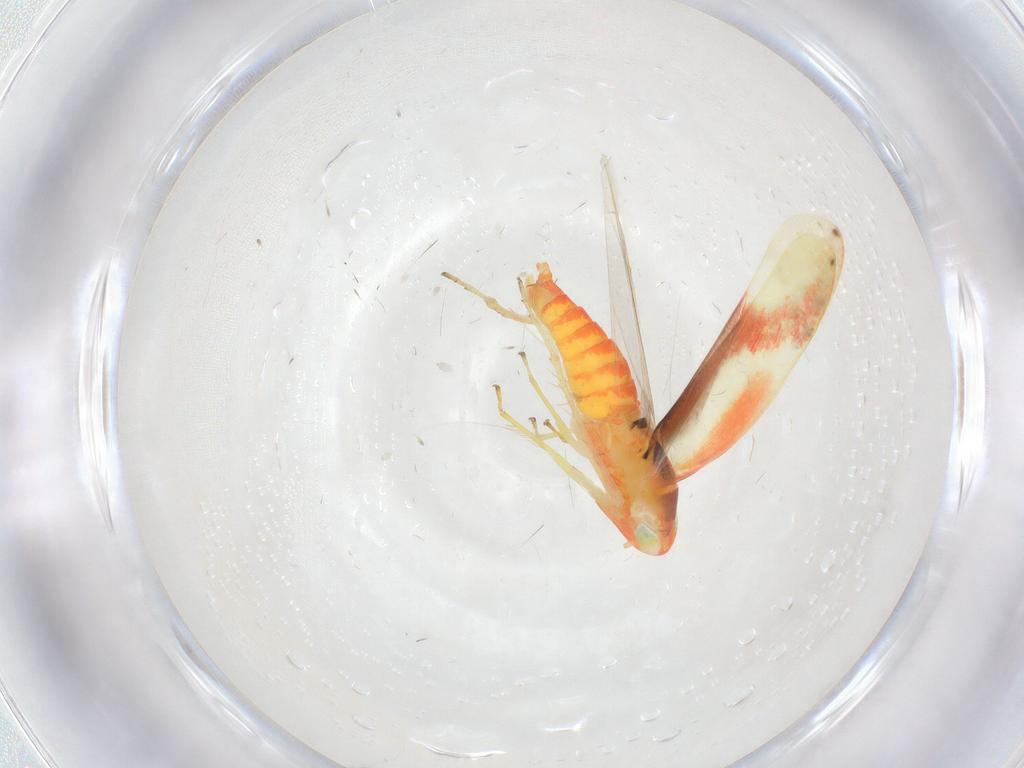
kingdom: Animalia
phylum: Arthropoda
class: Insecta
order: Hemiptera
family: Cicadellidae
